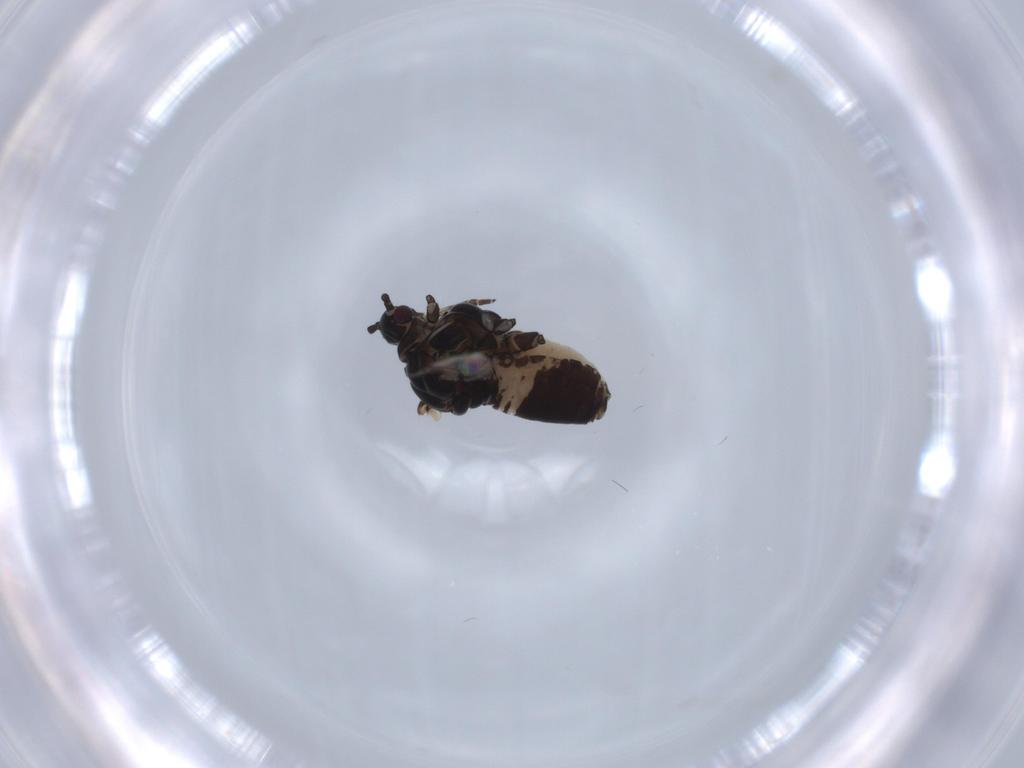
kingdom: Animalia
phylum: Arthropoda
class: Insecta
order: Hemiptera
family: Aphididae
